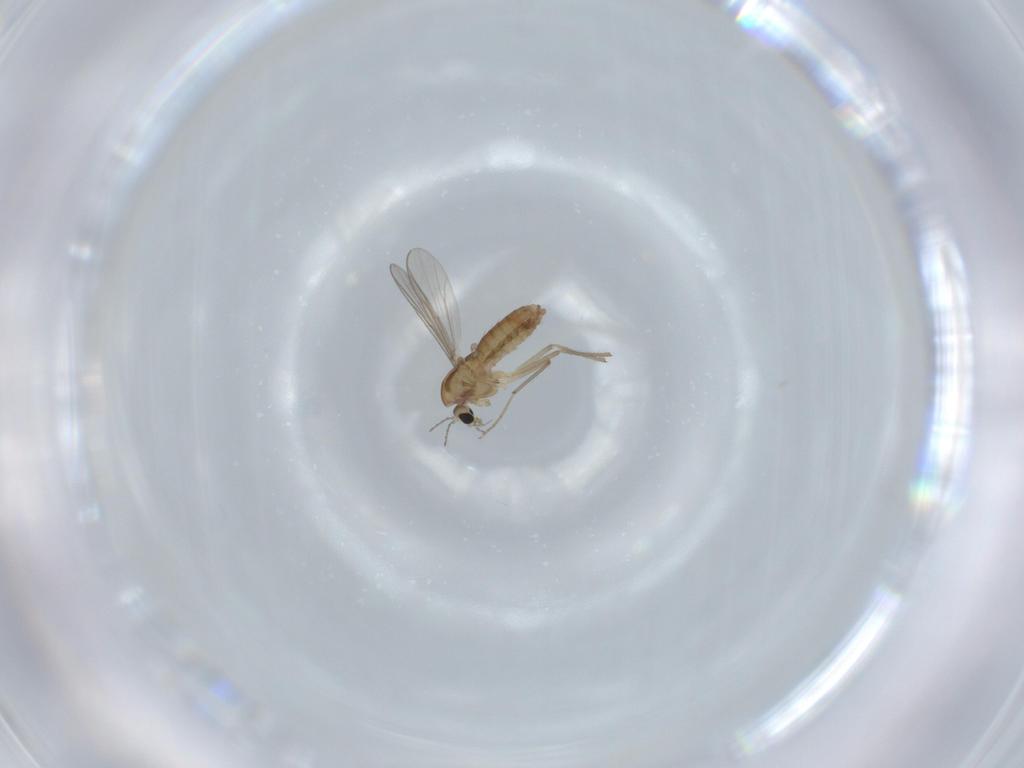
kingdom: Animalia
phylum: Arthropoda
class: Insecta
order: Diptera
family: Chironomidae
